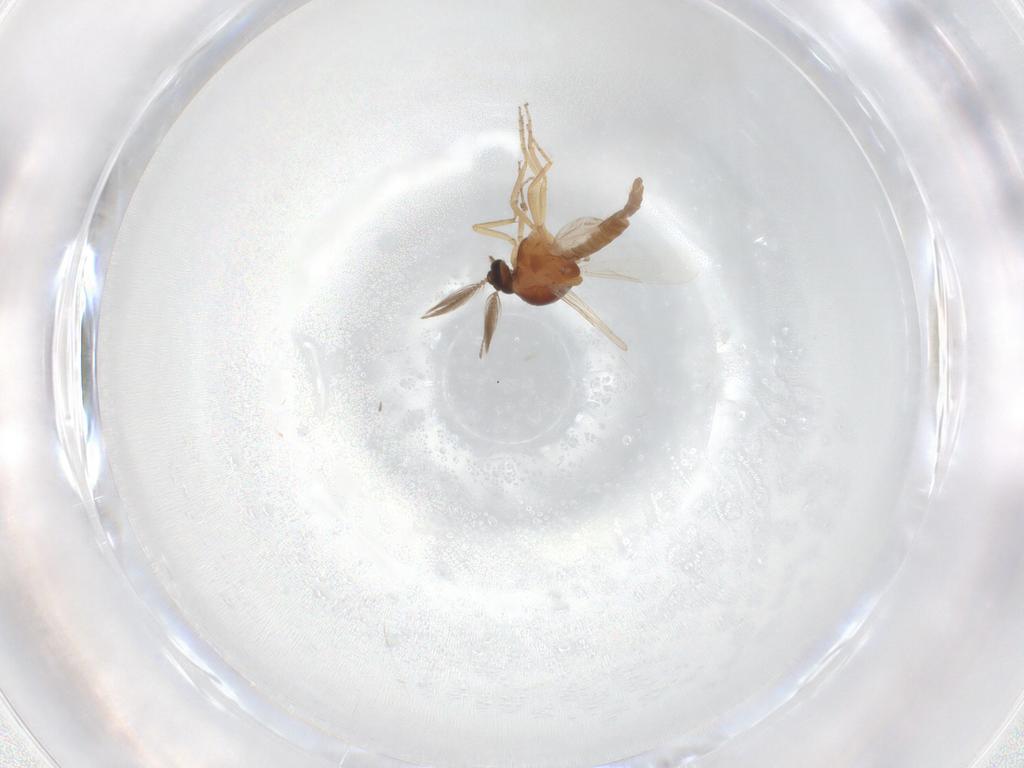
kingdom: Animalia
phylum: Arthropoda
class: Insecta
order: Diptera
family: Ceratopogonidae
